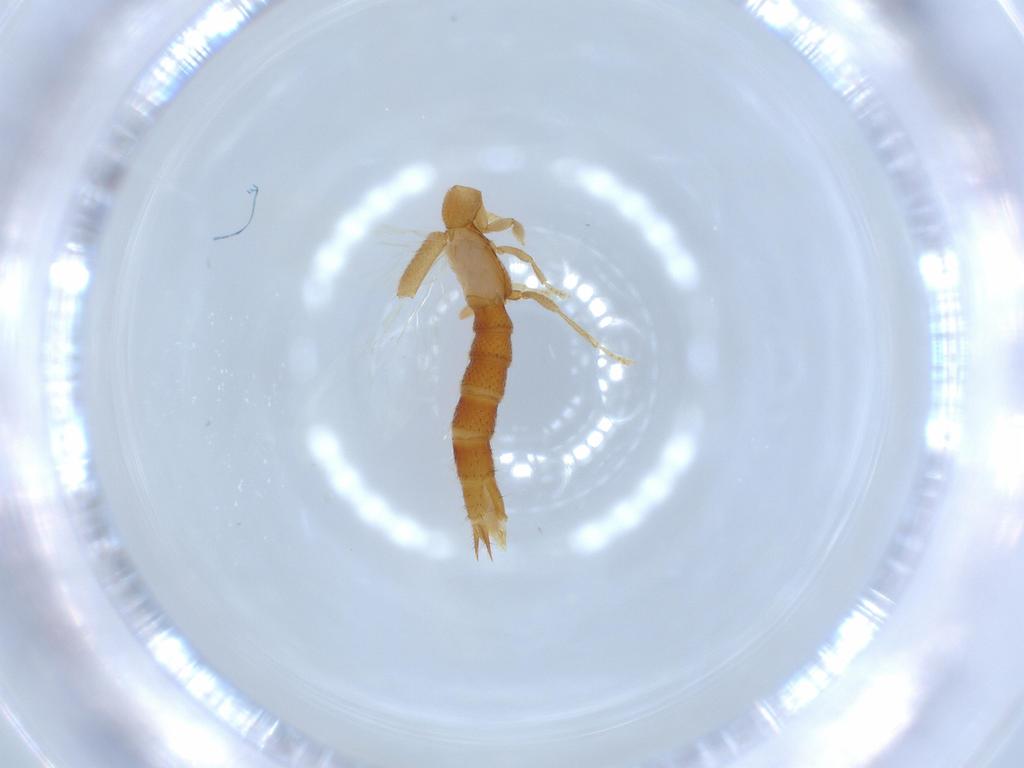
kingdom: Animalia
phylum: Arthropoda
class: Insecta
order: Coleoptera
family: Staphylinidae
